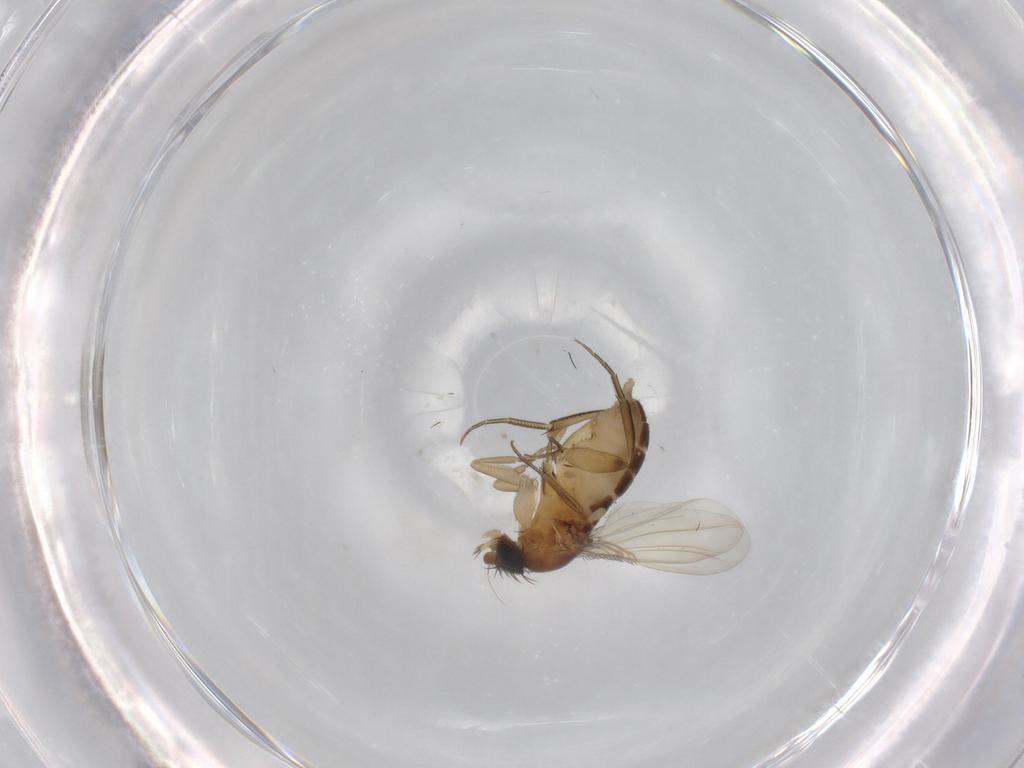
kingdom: Animalia
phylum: Arthropoda
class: Insecta
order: Diptera
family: Phoridae
